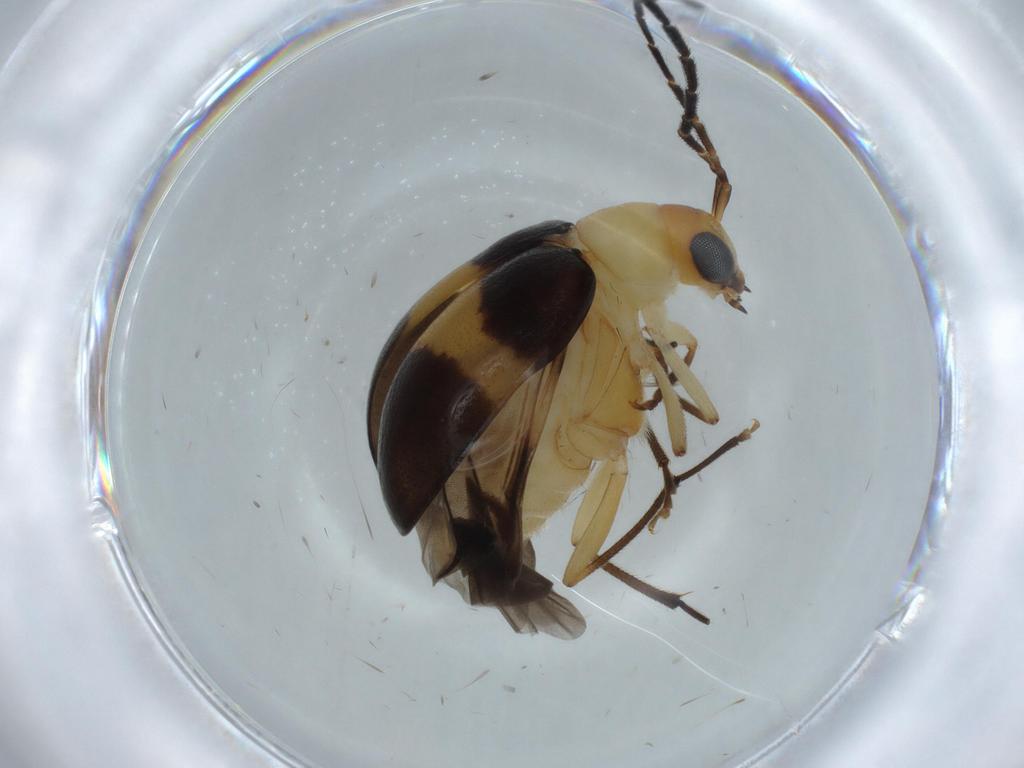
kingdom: Animalia
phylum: Arthropoda
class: Insecta
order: Coleoptera
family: Chrysomelidae
